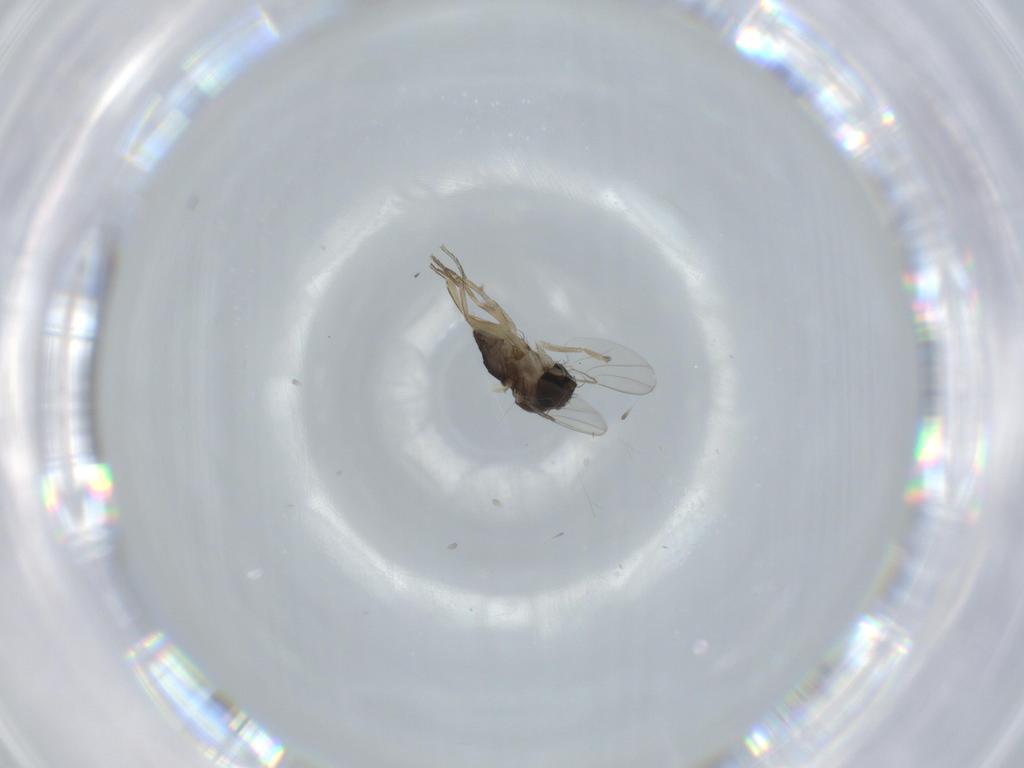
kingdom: Animalia
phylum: Arthropoda
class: Insecta
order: Diptera
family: Phoridae
